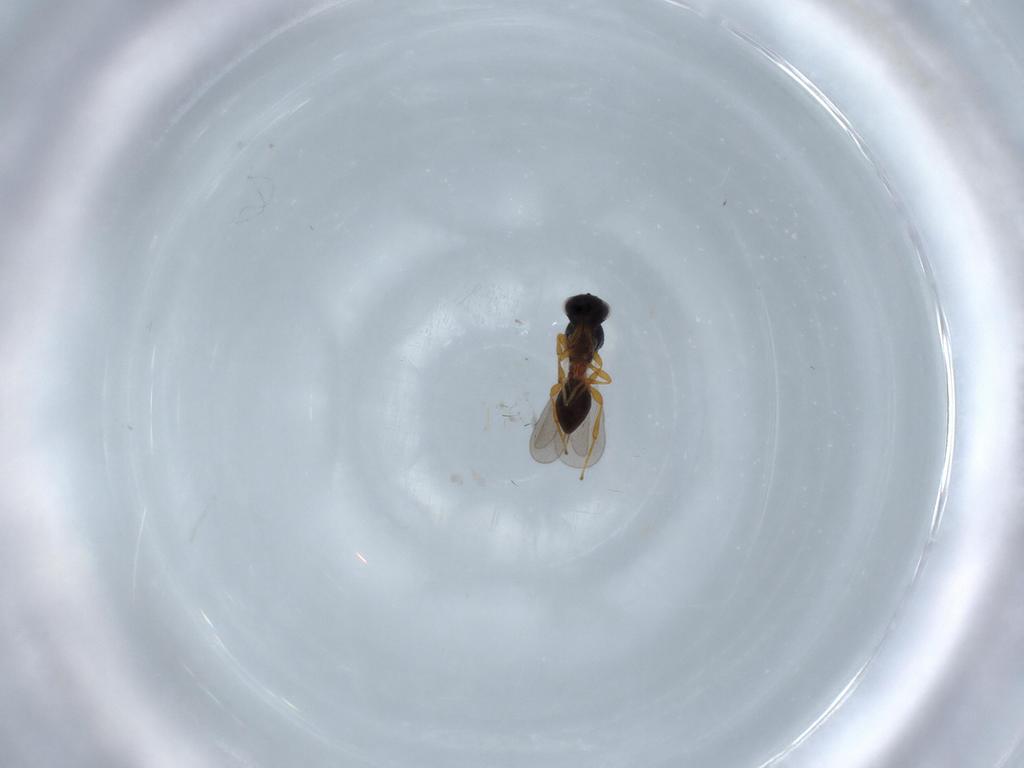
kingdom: Animalia
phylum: Arthropoda
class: Insecta
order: Hymenoptera
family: Platygastridae
